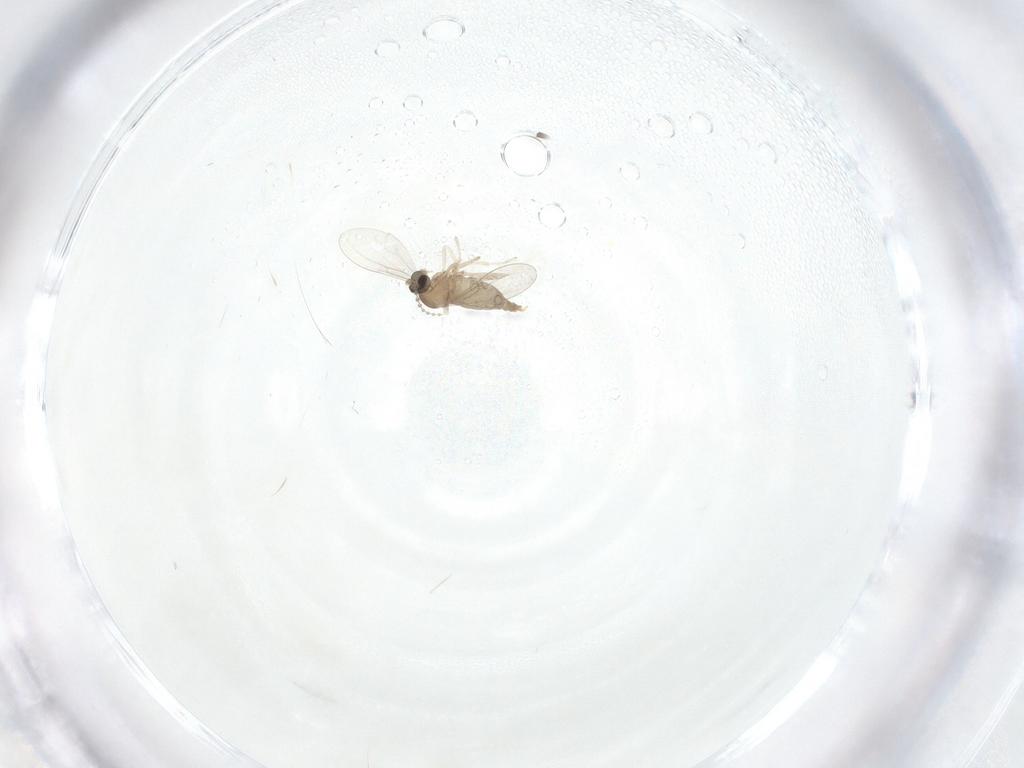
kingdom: Animalia
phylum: Arthropoda
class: Insecta
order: Diptera
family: Cecidomyiidae
